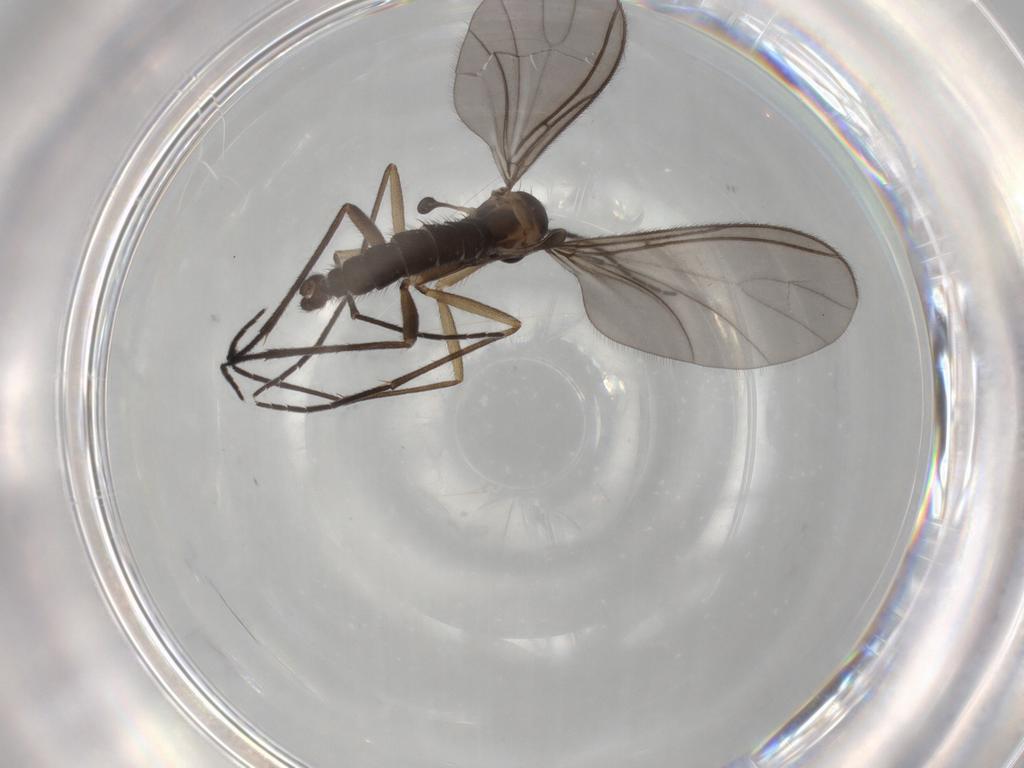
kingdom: Animalia
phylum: Arthropoda
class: Insecta
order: Diptera
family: Sciaridae
